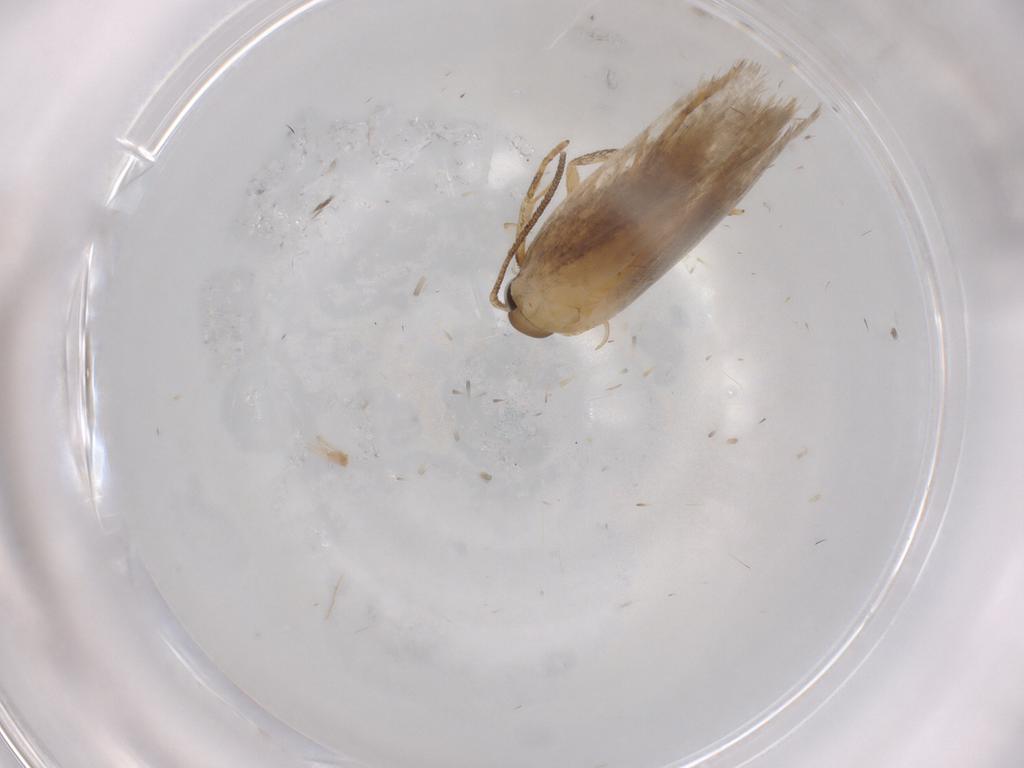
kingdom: Animalia
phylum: Arthropoda
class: Insecta
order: Lepidoptera
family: Autostichidae
